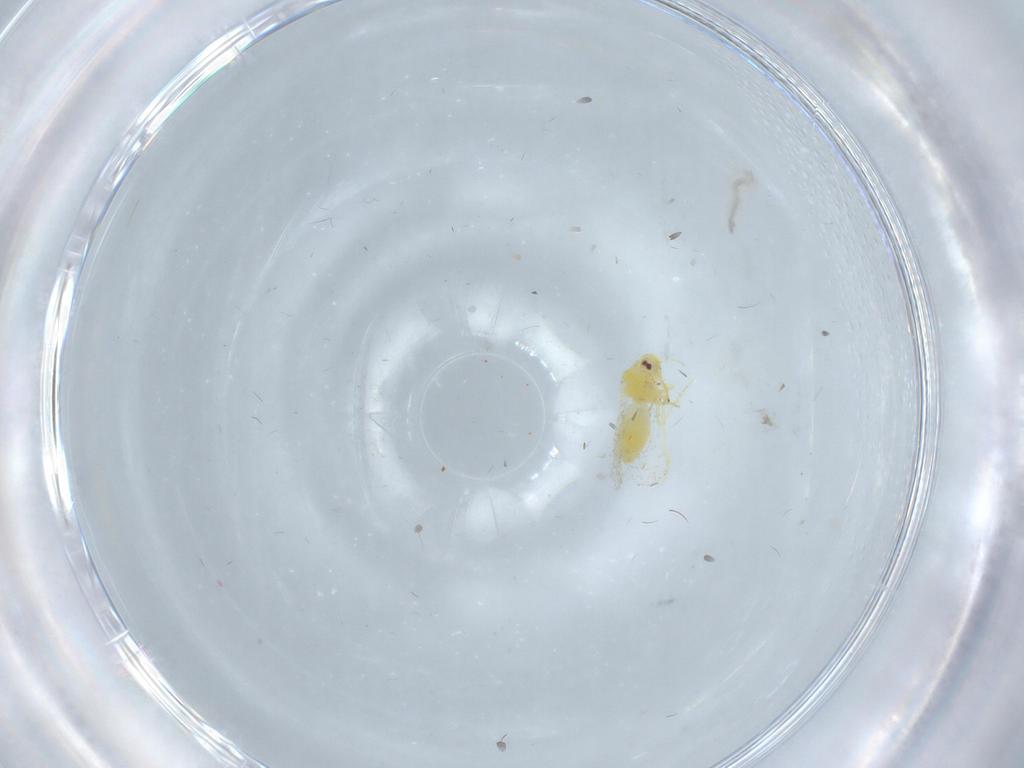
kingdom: Animalia
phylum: Arthropoda
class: Insecta
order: Hemiptera
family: Aleyrodidae
